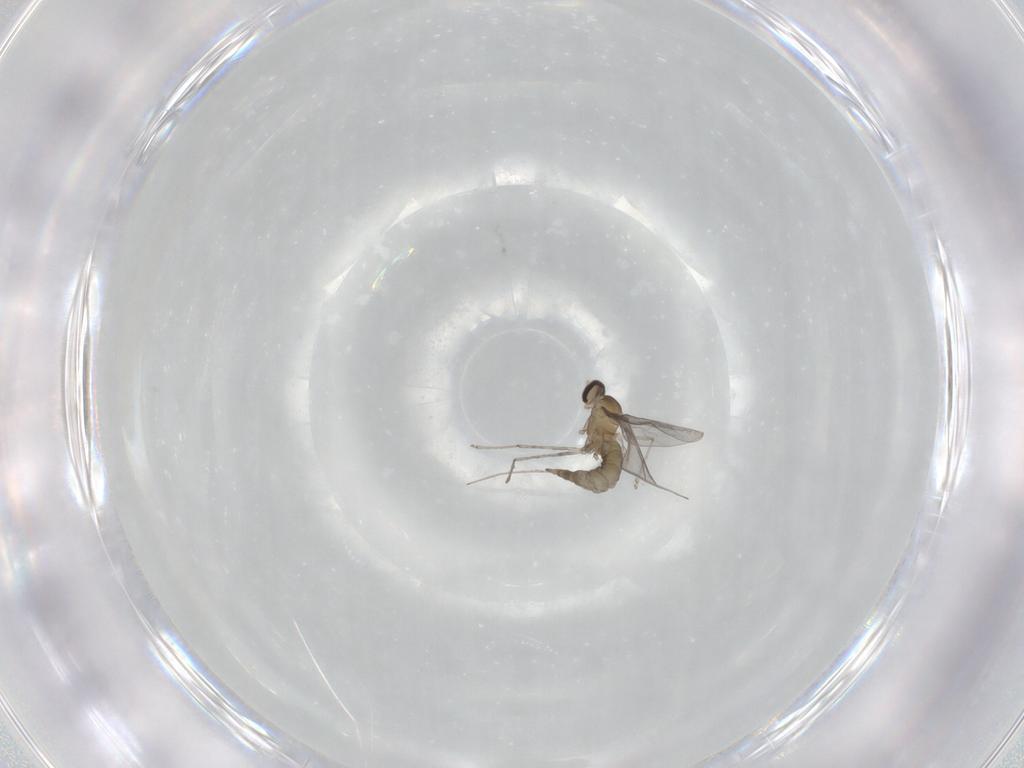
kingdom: Animalia
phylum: Arthropoda
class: Insecta
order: Diptera
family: Cecidomyiidae
